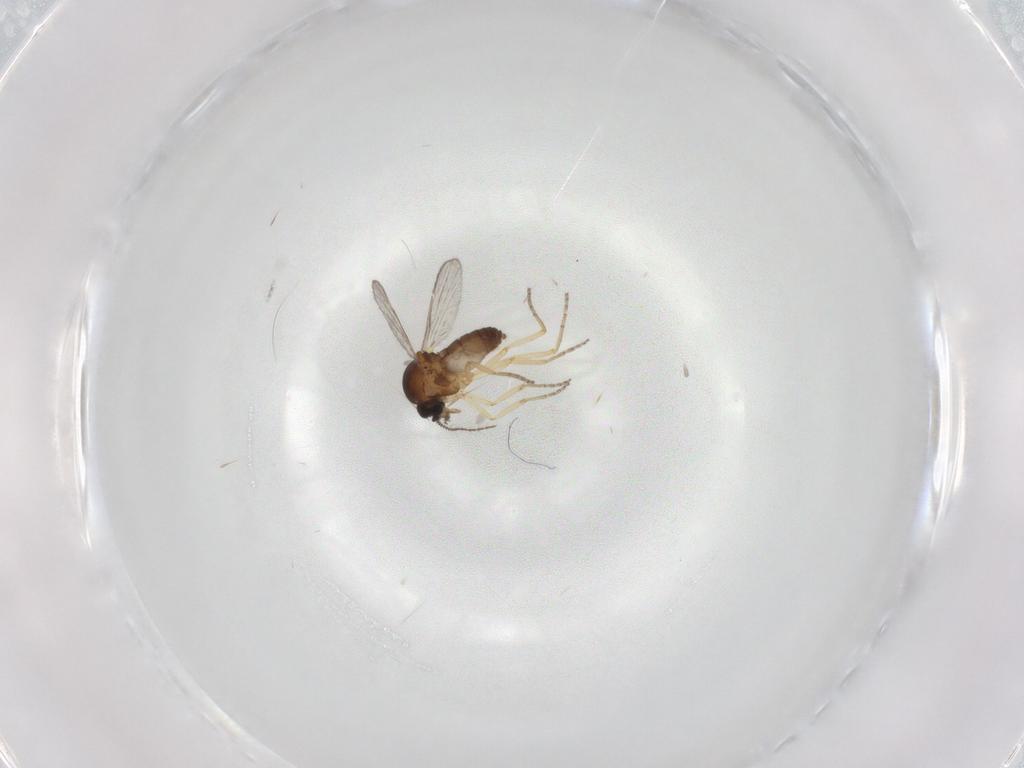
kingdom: Animalia
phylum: Arthropoda
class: Insecta
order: Diptera
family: Ceratopogonidae
